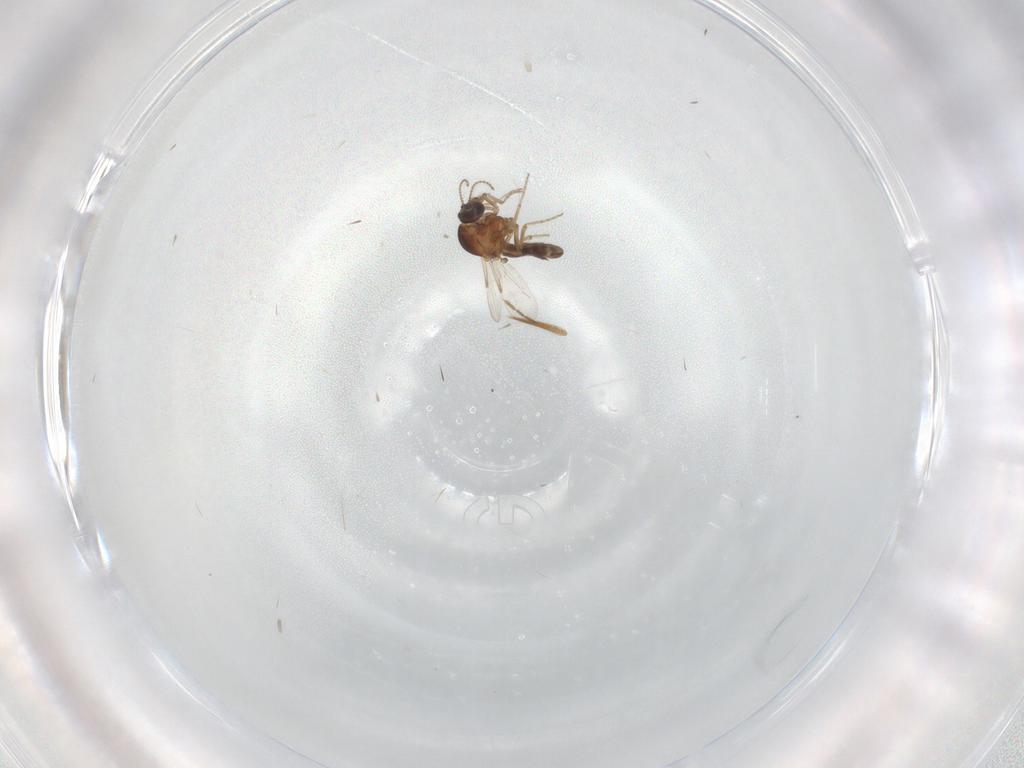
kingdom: Animalia
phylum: Arthropoda
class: Insecta
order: Diptera
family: Ceratopogonidae
